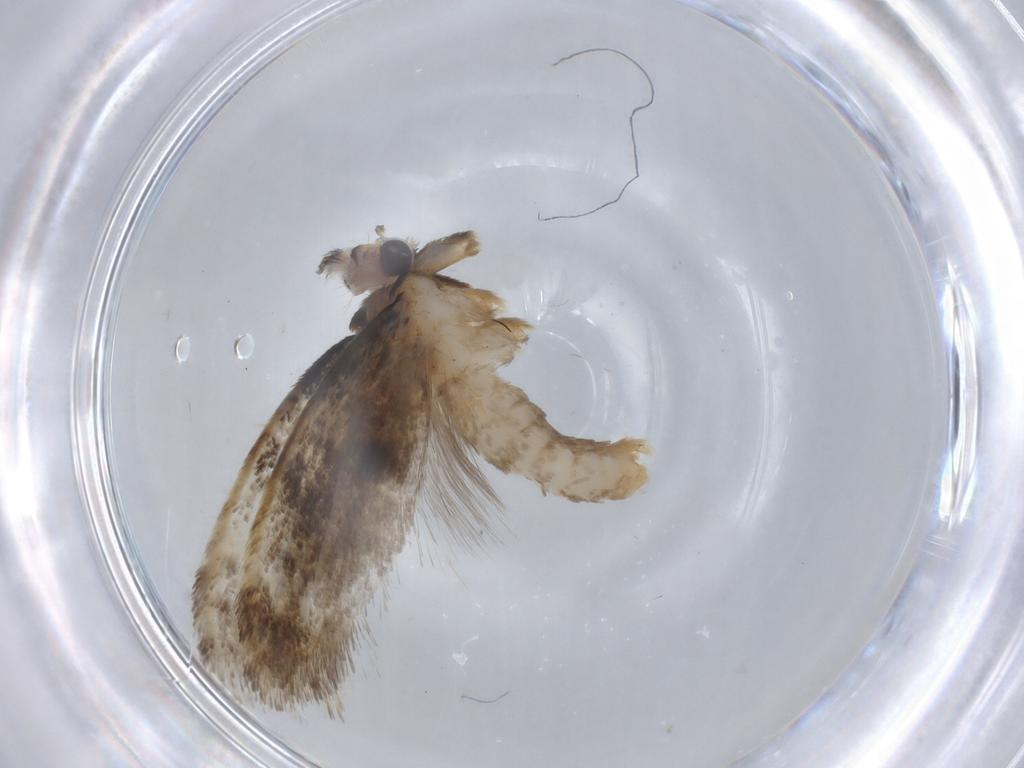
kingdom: Animalia
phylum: Arthropoda
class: Insecta
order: Lepidoptera
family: Tineidae
